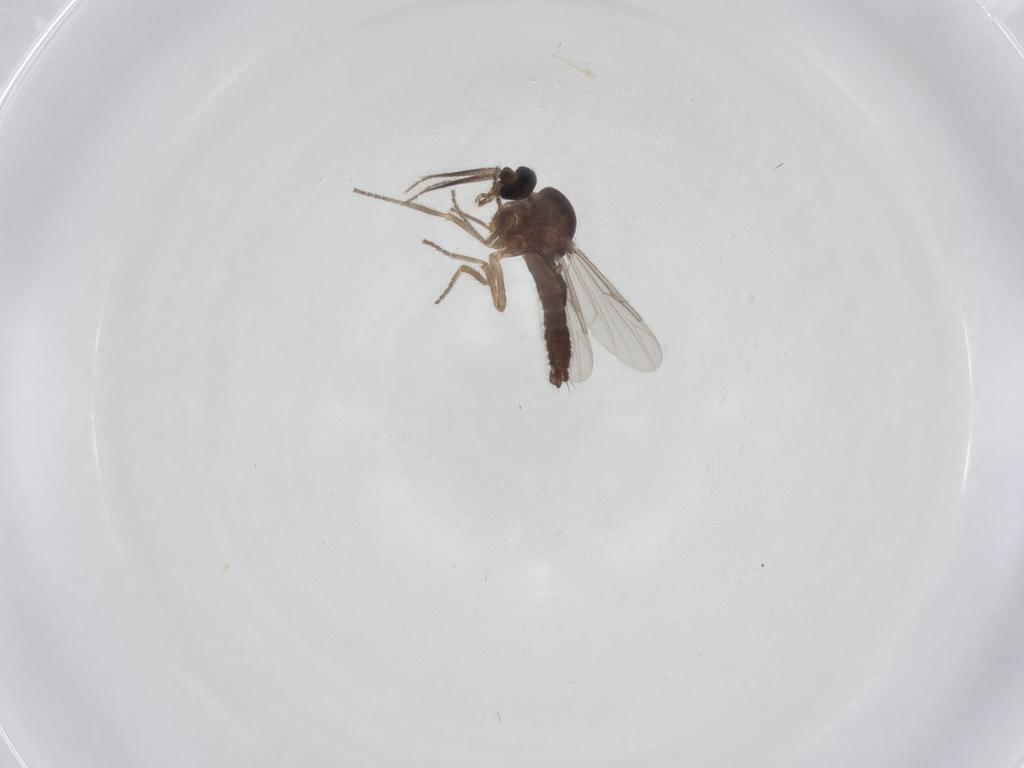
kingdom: Animalia
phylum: Arthropoda
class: Insecta
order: Diptera
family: Ceratopogonidae
